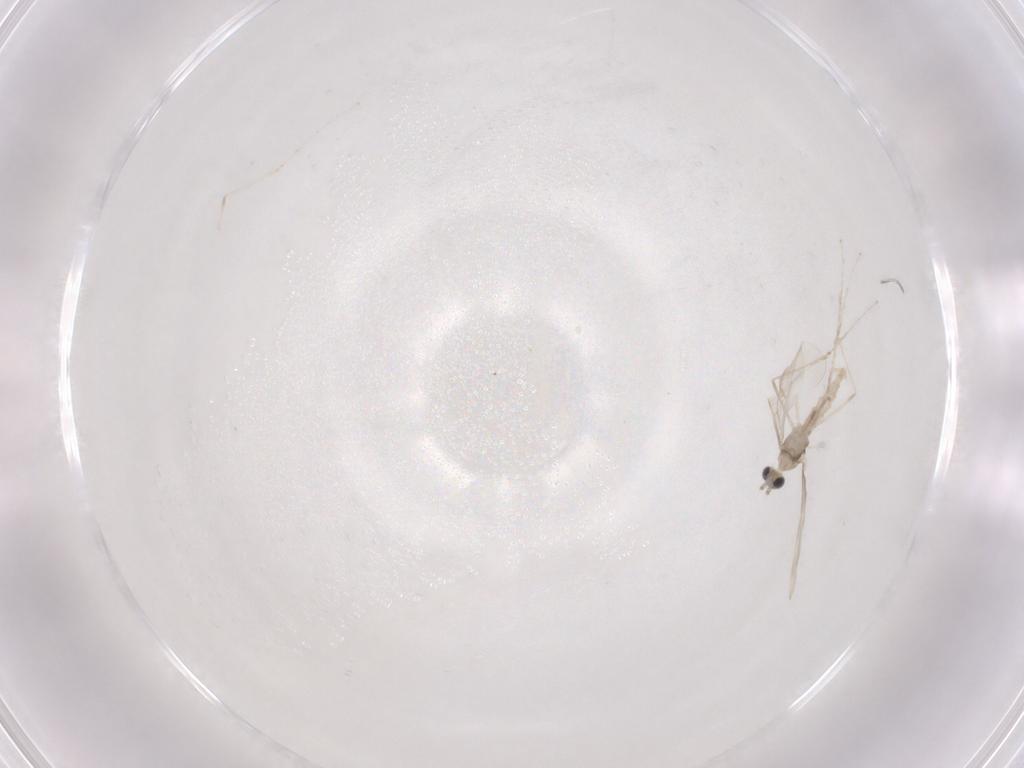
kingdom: Animalia
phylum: Arthropoda
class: Insecta
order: Diptera
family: Cecidomyiidae
